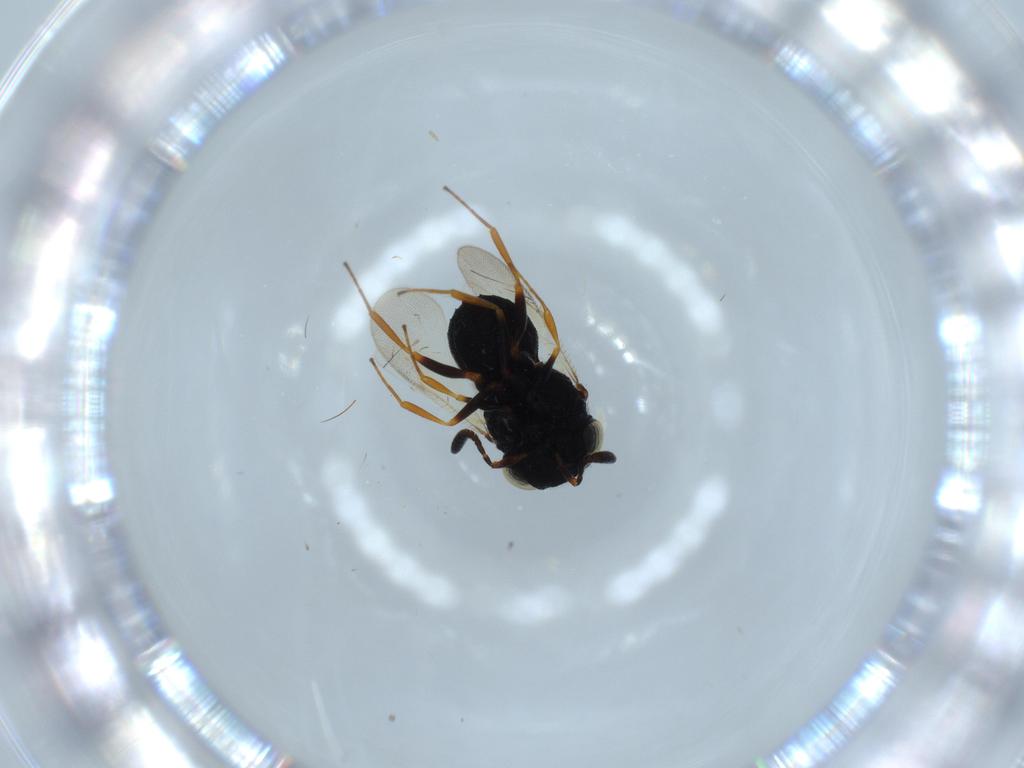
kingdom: Animalia
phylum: Arthropoda
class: Insecta
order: Hymenoptera
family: Scelionidae
